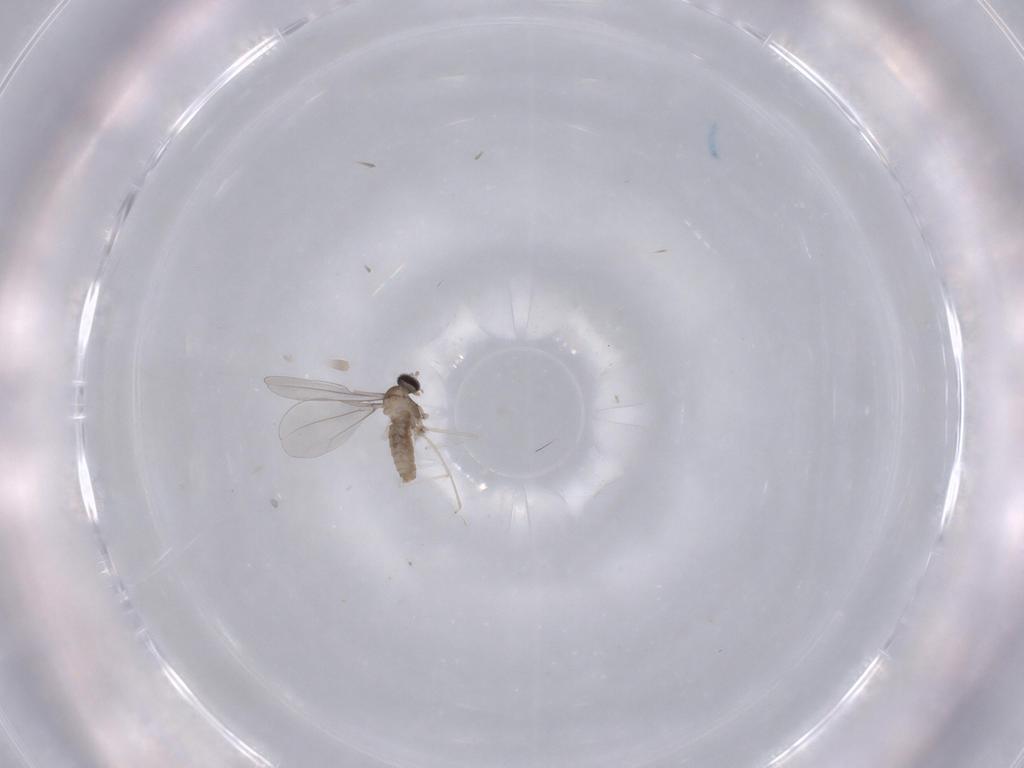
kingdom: Animalia
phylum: Arthropoda
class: Insecta
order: Diptera
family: Cecidomyiidae
